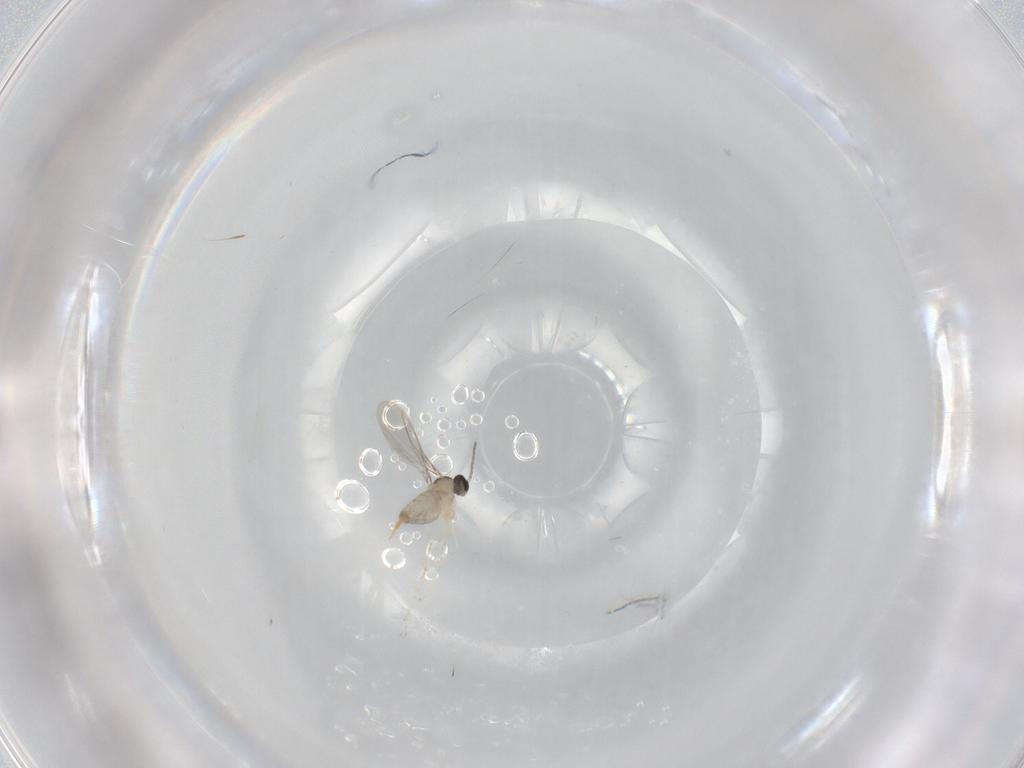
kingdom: Animalia
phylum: Arthropoda
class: Insecta
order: Diptera
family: Cecidomyiidae
